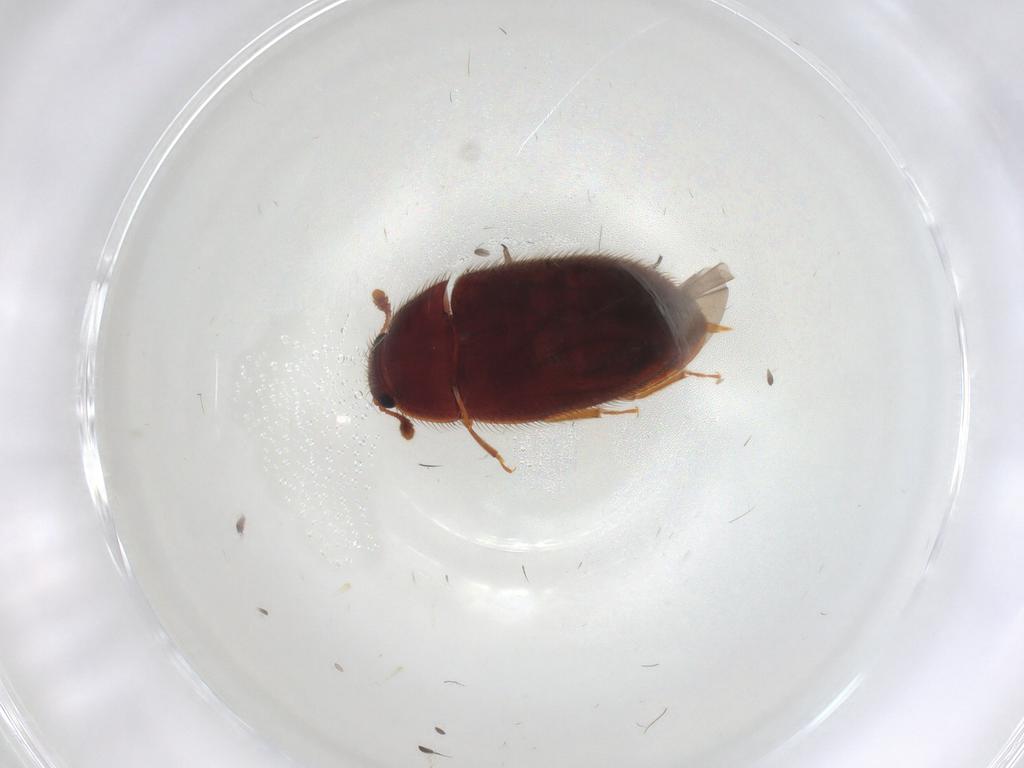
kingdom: Animalia
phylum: Arthropoda
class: Insecta
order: Coleoptera
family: Biphyllidae
